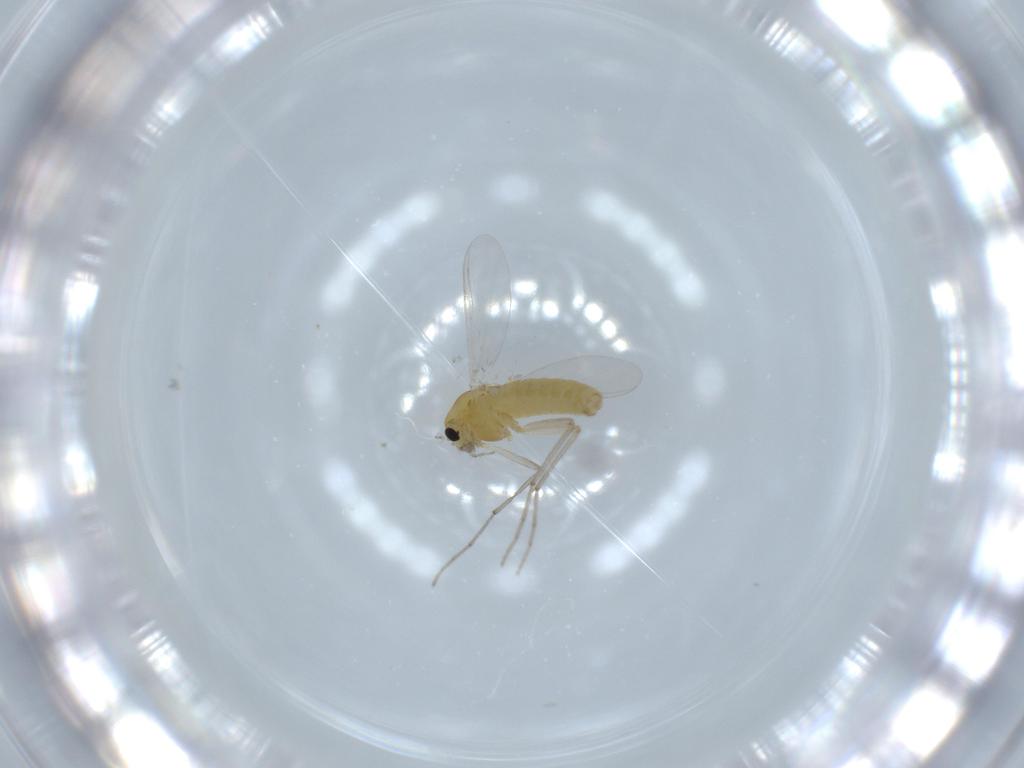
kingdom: Animalia
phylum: Arthropoda
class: Insecta
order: Diptera
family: Chironomidae
